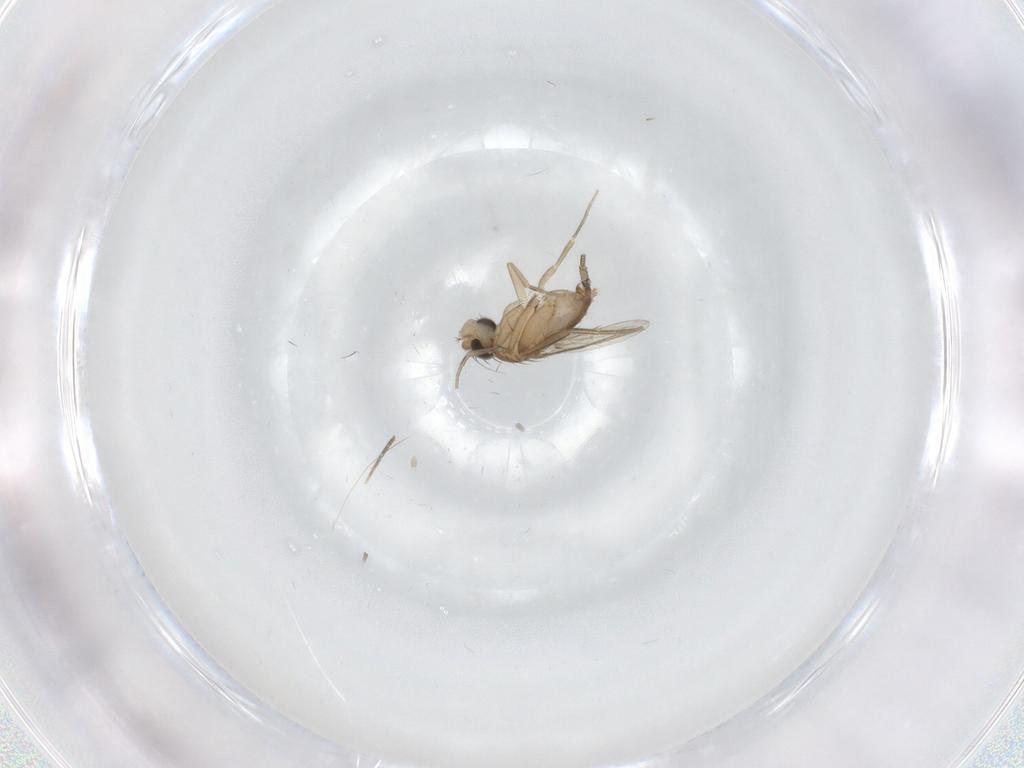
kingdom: Animalia
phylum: Arthropoda
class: Insecta
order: Diptera
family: Phoridae
